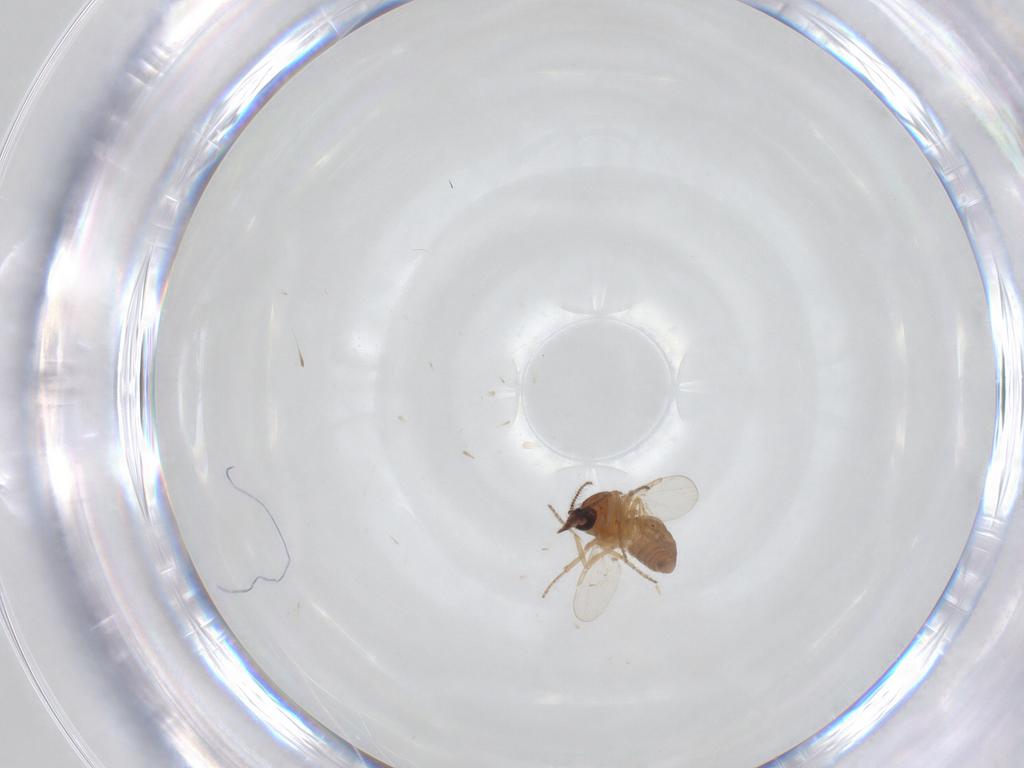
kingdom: Animalia
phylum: Arthropoda
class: Insecta
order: Diptera
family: Ceratopogonidae
